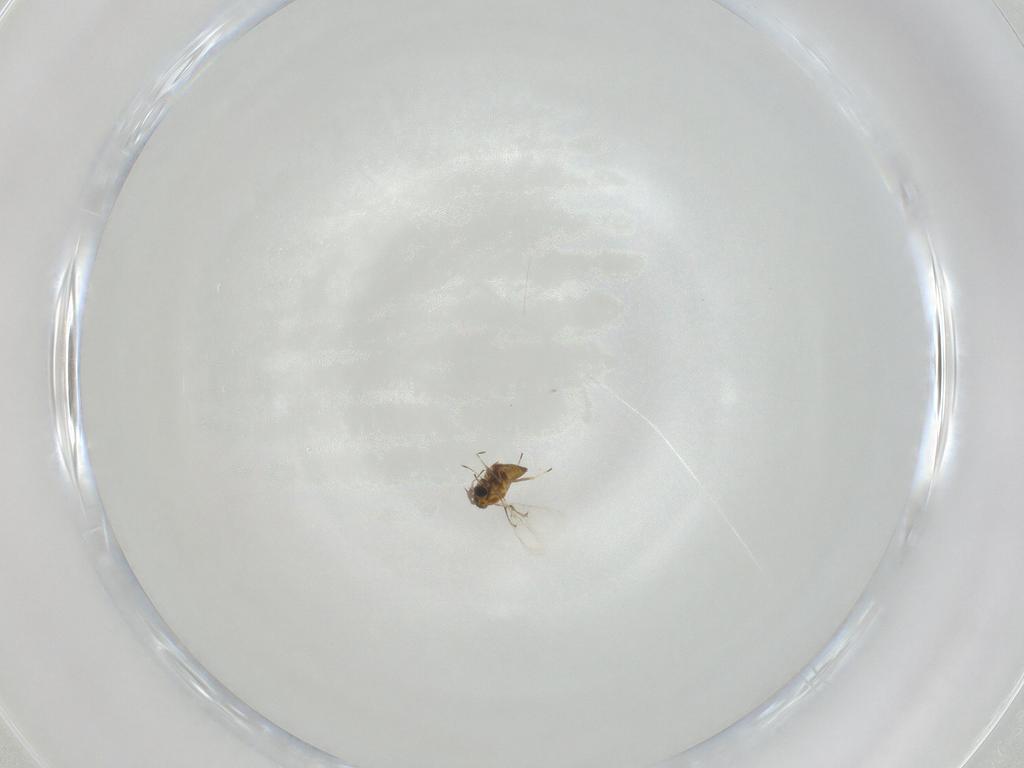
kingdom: Animalia
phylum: Arthropoda
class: Insecta
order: Hymenoptera
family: Trichogrammatidae
